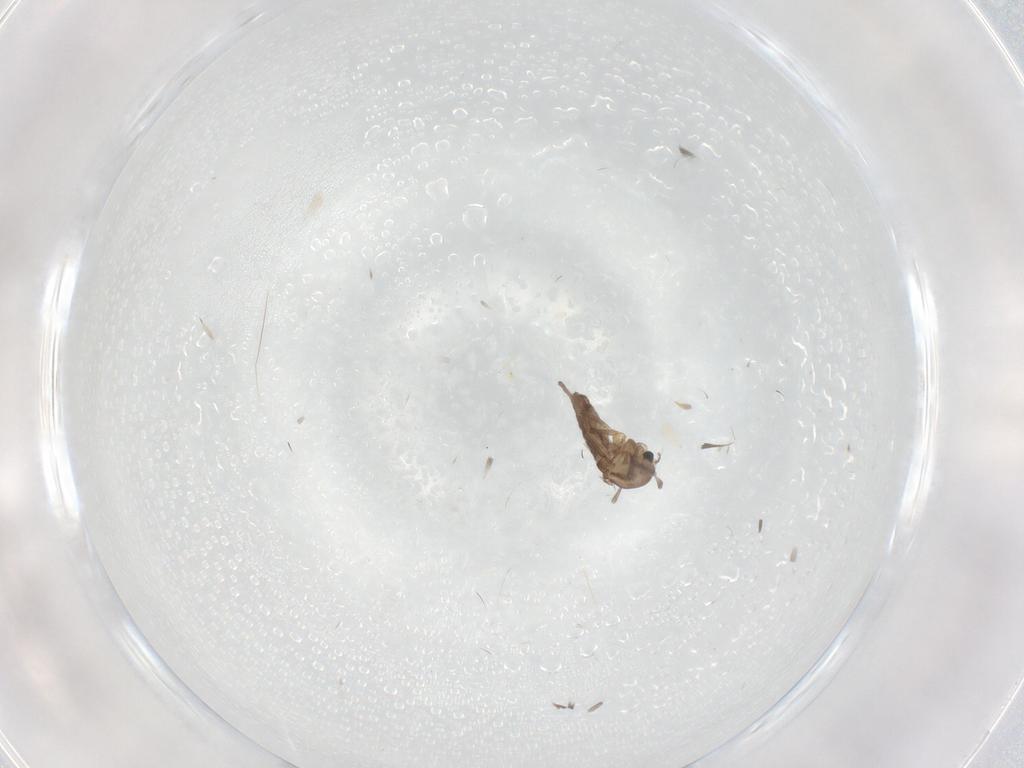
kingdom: Animalia
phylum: Arthropoda
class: Insecta
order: Diptera
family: Chironomidae
